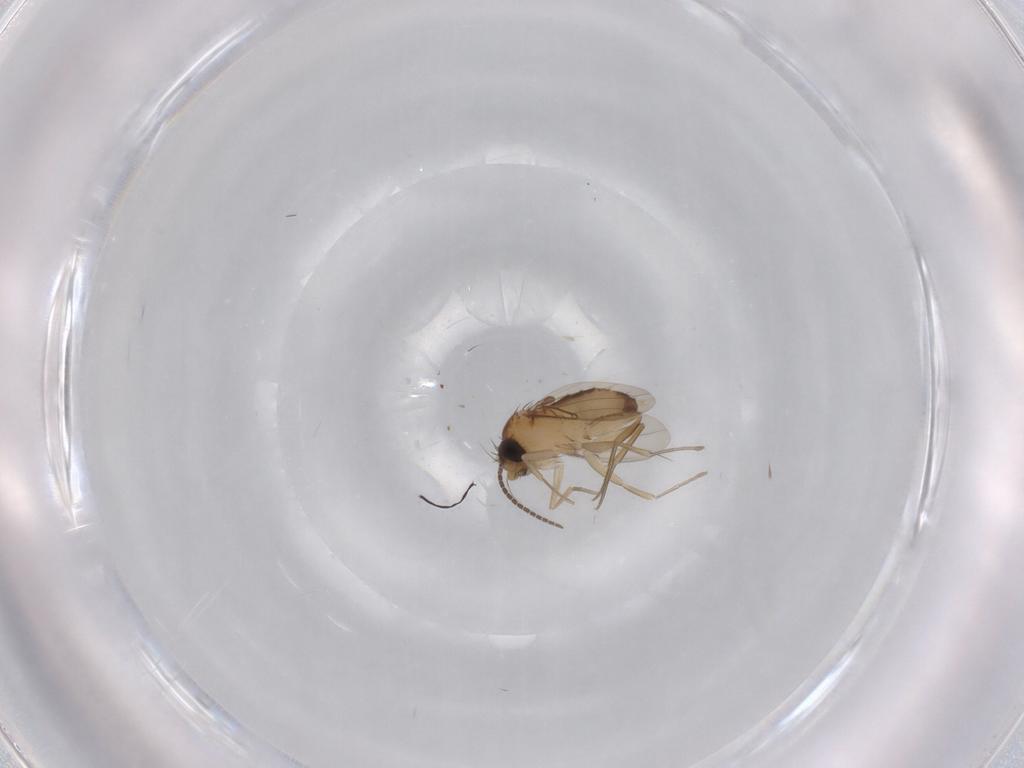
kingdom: Animalia
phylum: Arthropoda
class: Insecta
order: Diptera
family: Phoridae
